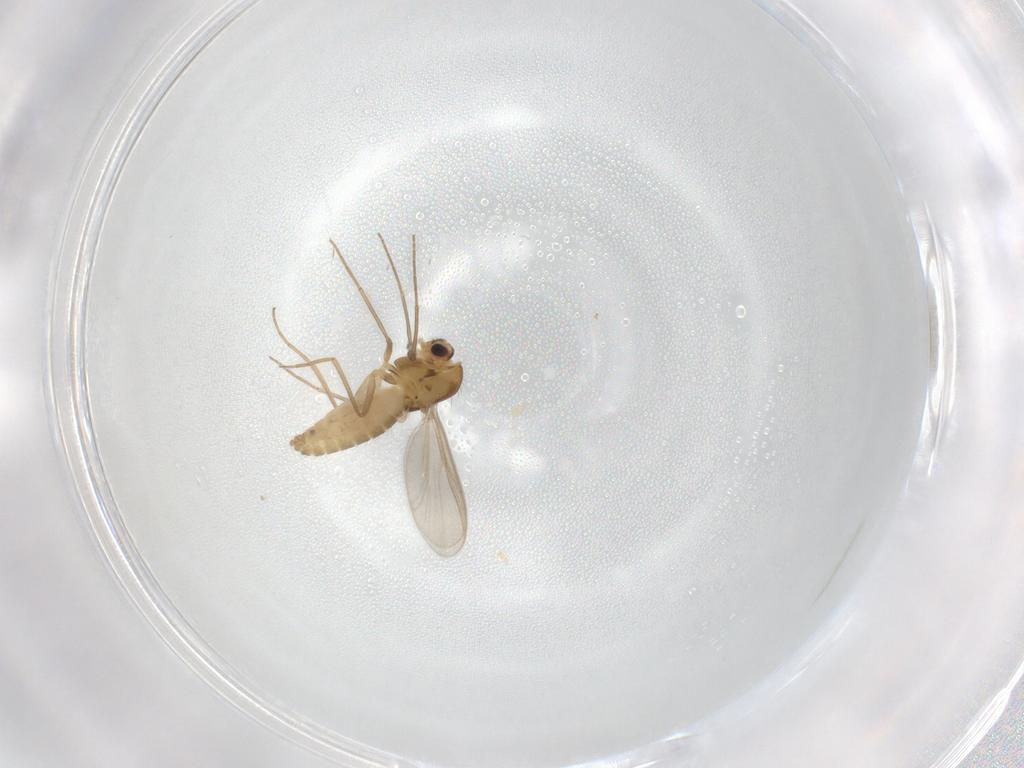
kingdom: Animalia
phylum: Arthropoda
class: Insecta
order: Diptera
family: Chironomidae
